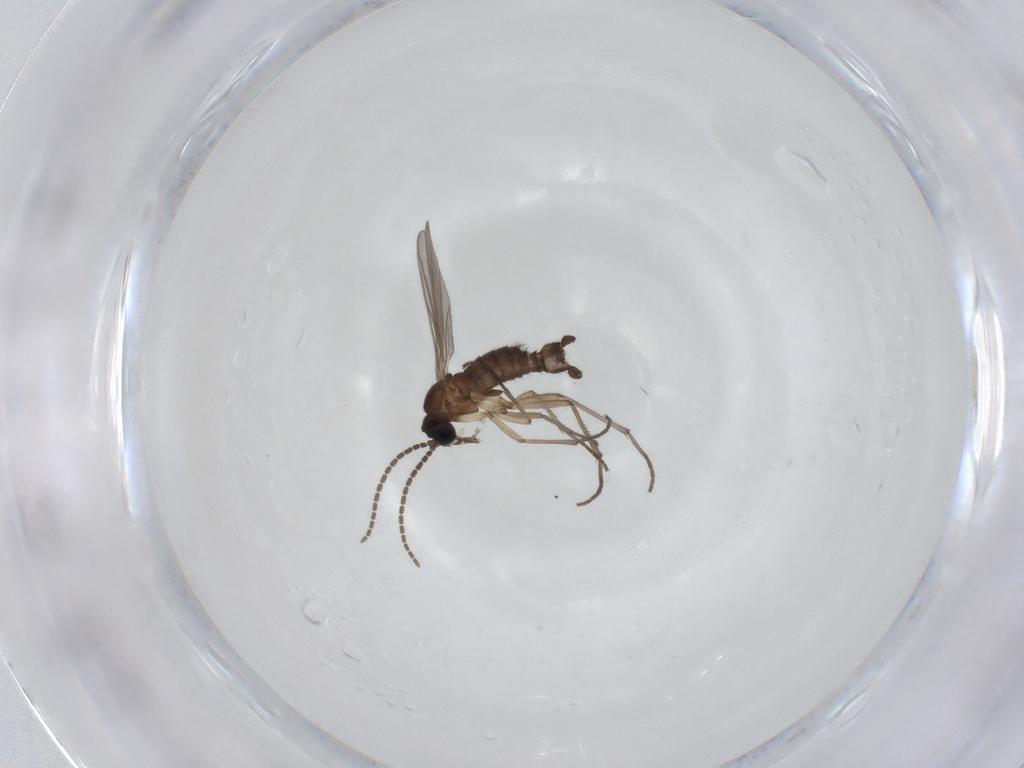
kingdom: Animalia
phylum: Arthropoda
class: Insecta
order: Diptera
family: Sciaridae
